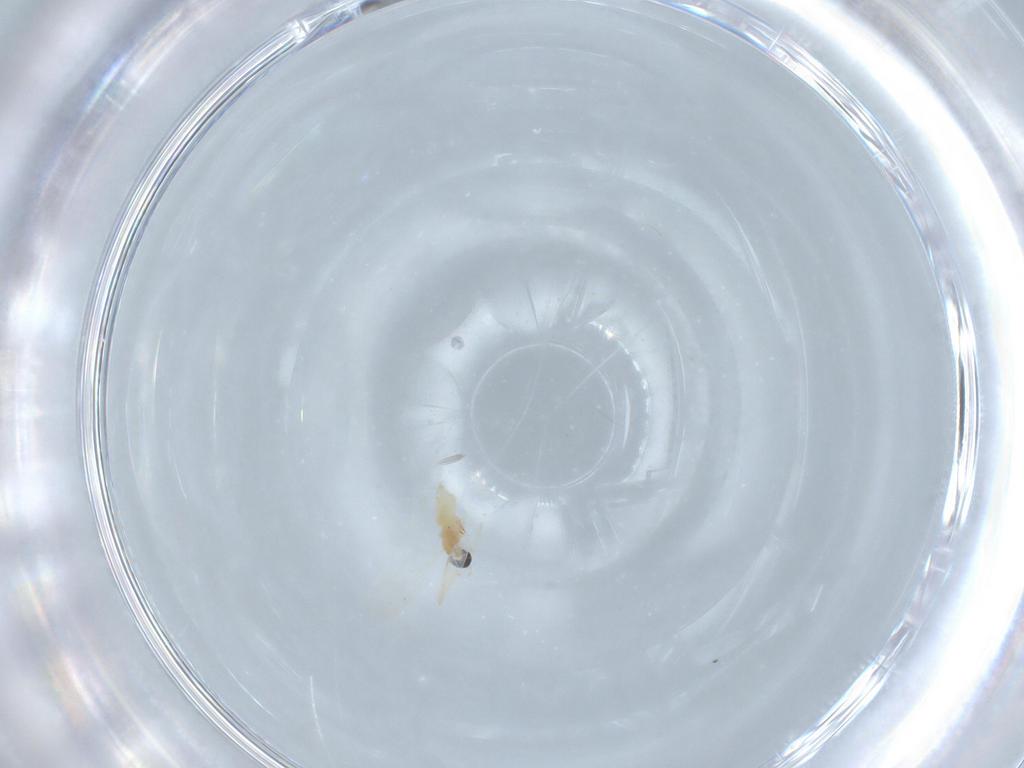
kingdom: Animalia
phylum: Arthropoda
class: Insecta
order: Diptera
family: Cecidomyiidae
